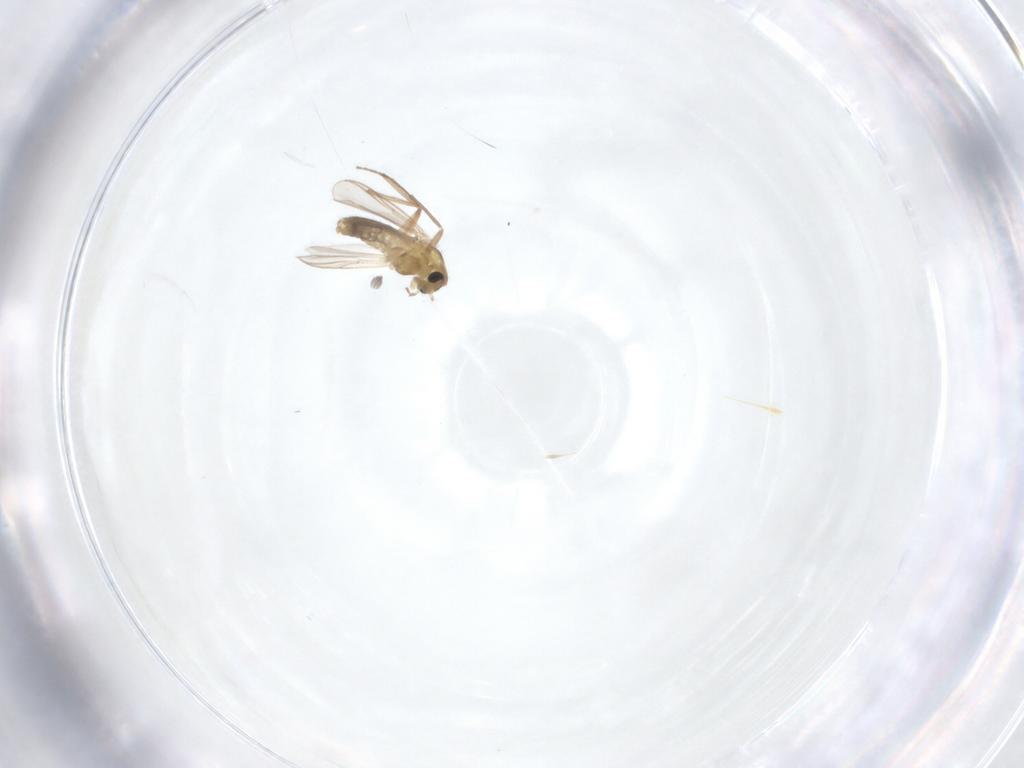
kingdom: Animalia
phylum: Arthropoda
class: Insecta
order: Diptera
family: Chironomidae
